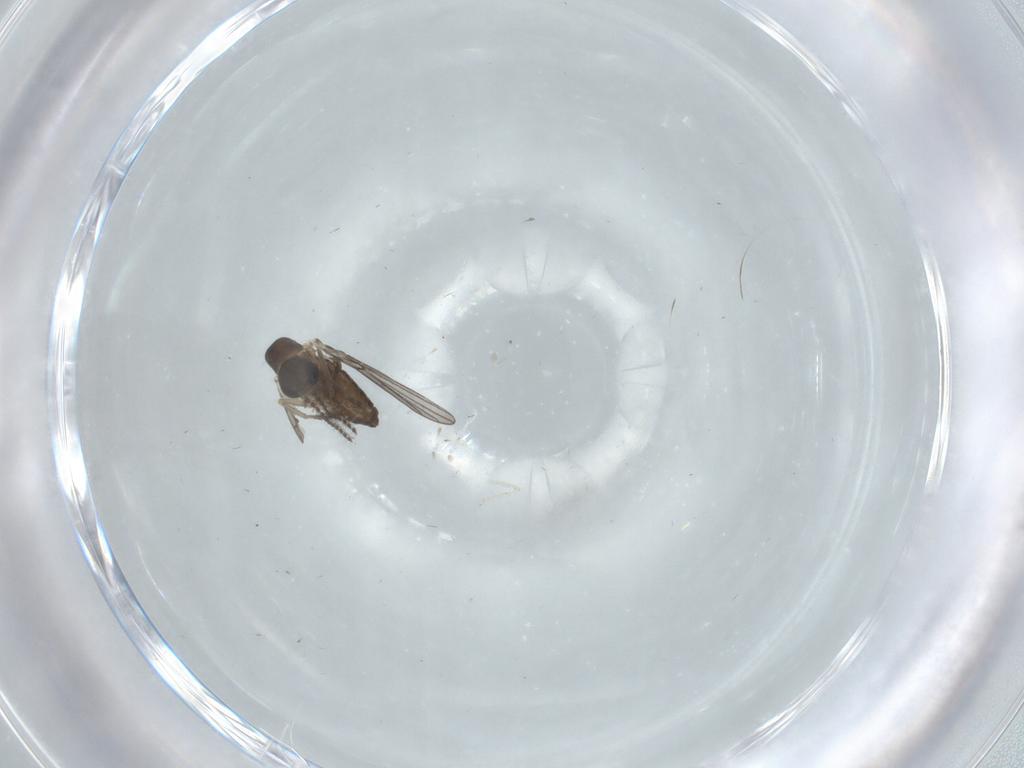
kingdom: Animalia
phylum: Arthropoda
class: Insecta
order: Diptera
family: Cecidomyiidae
